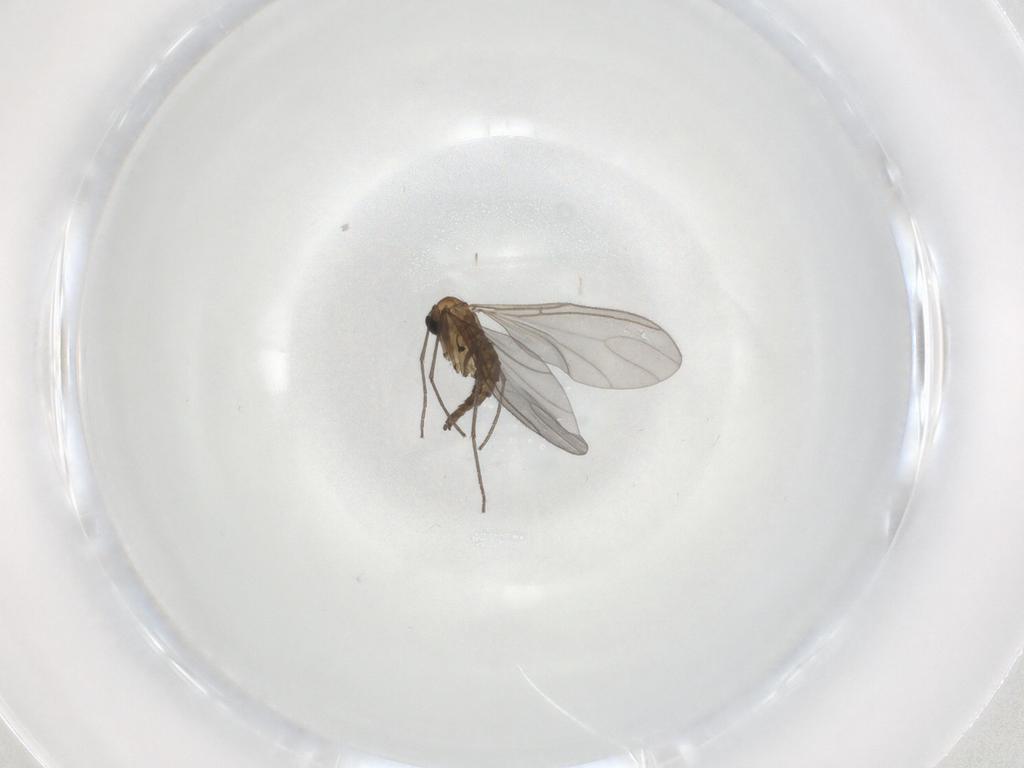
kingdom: Animalia
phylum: Arthropoda
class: Insecta
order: Diptera
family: Sciaridae
